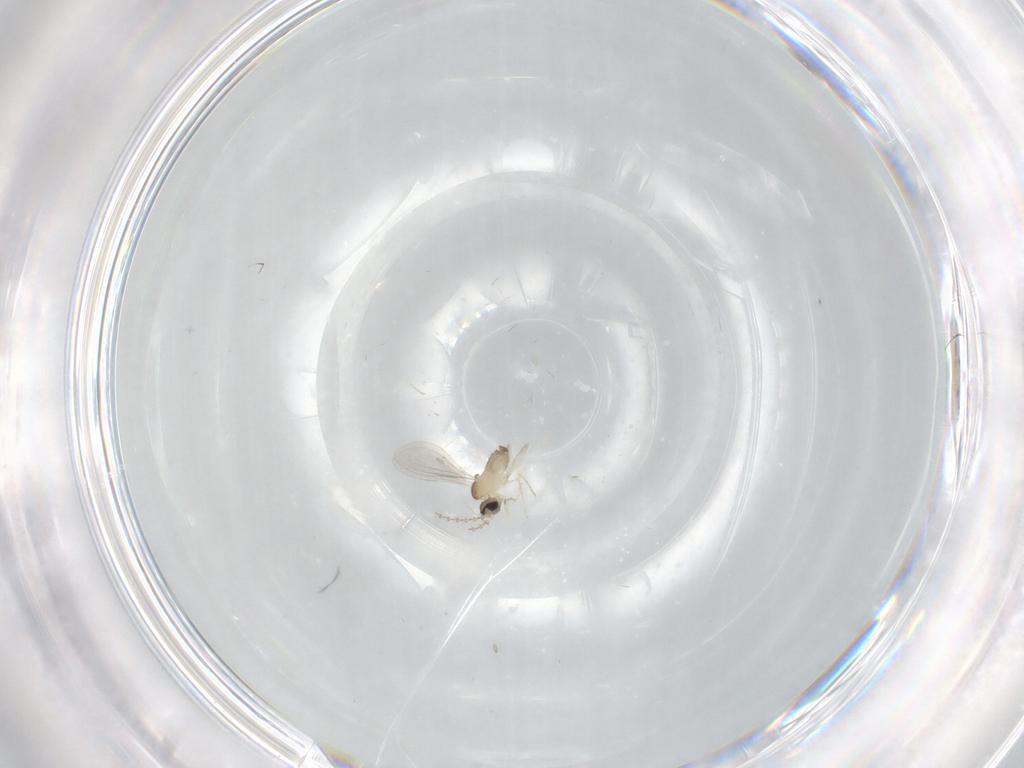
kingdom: Animalia
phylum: Arthropoda
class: Insecta
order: Diptera
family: Cecidomyiidae
